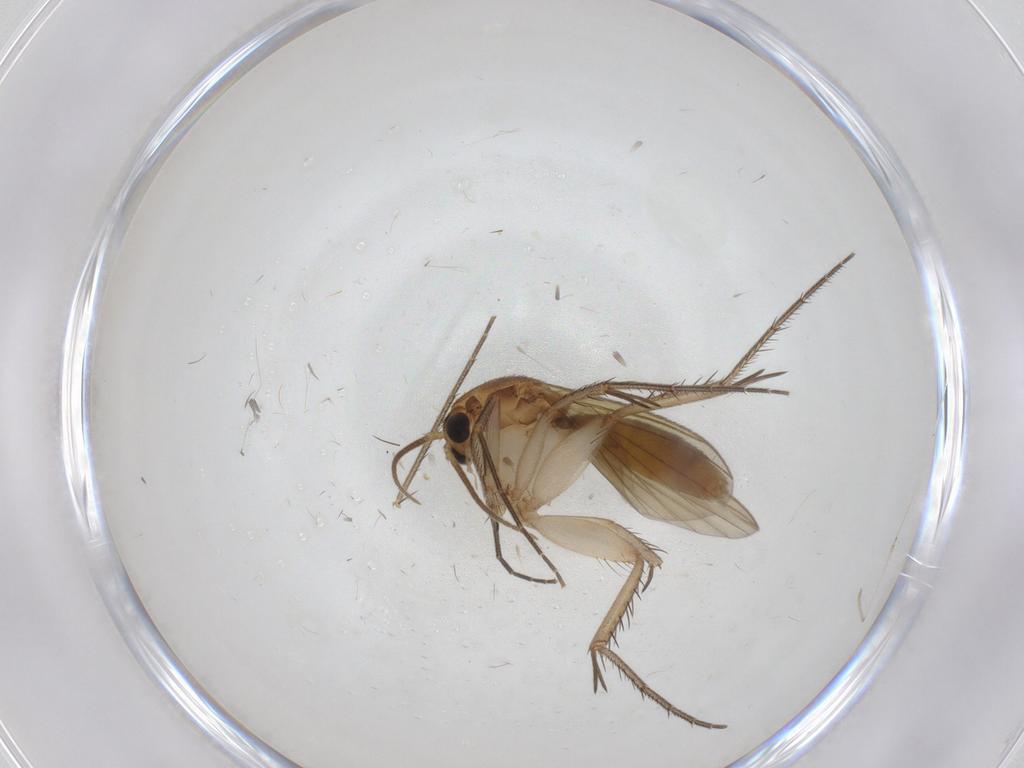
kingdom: Animalia
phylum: Arthropoda
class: Insecta
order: Diptera
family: Mycetophilidae
